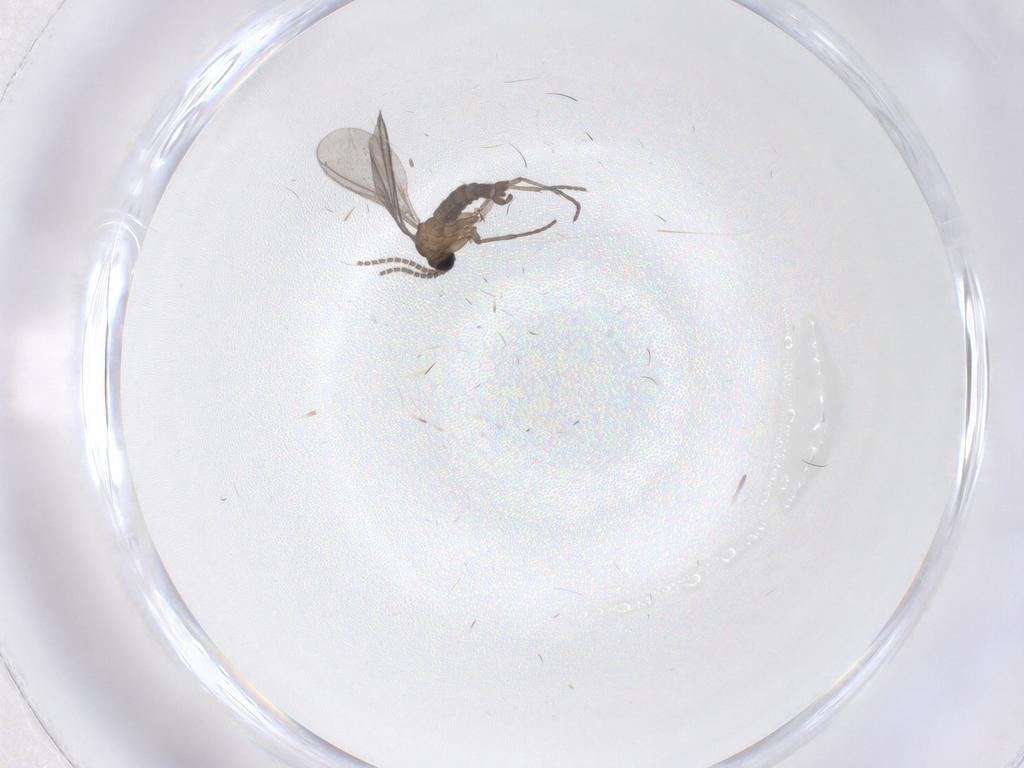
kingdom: Animalia
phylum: Arthropoda
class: Insecta
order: Diptera
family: Sciaridae
